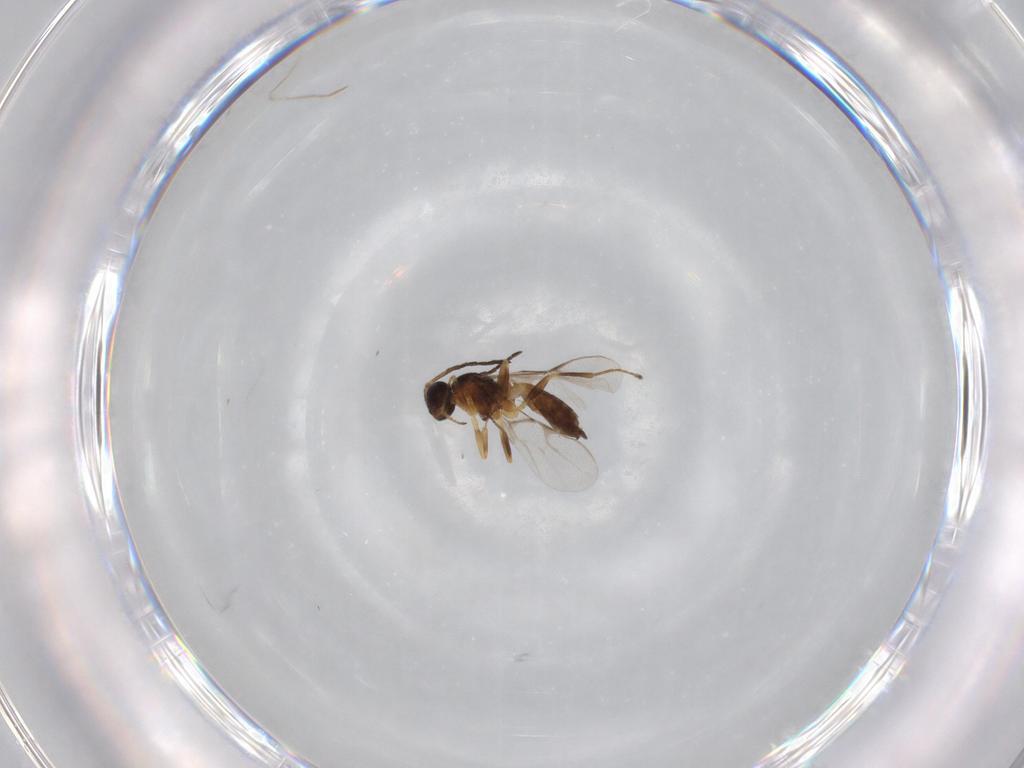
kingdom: Animalia
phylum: Arthropoda
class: Insecta
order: Hymenoptera
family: Braconidae
